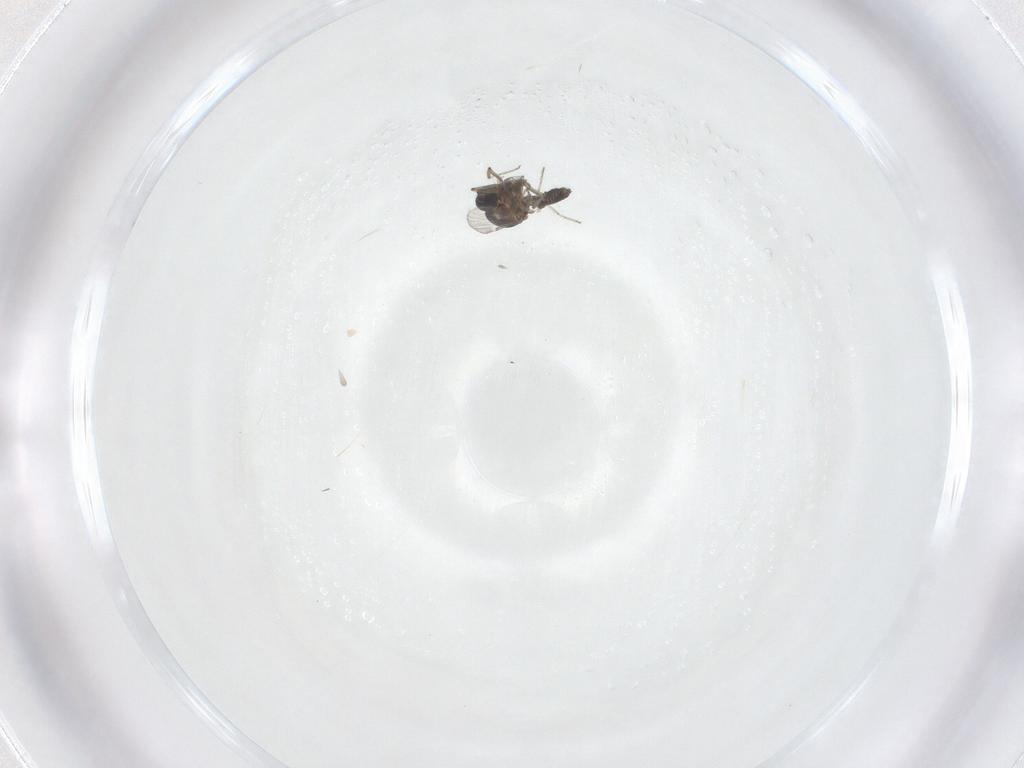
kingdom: Animalia
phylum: Arthropoda
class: Insecta
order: Diptera
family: Ceratopogonidae
